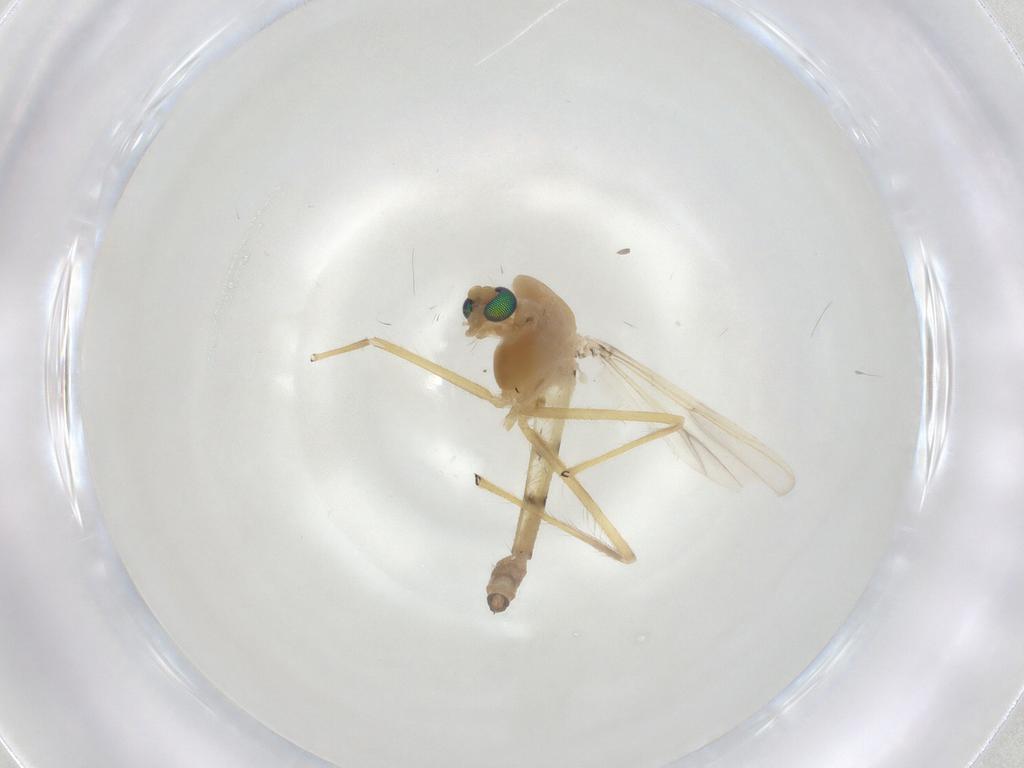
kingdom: Animalia
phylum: Arthropoda
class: Insecta
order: Diptera
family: Chironomidae
